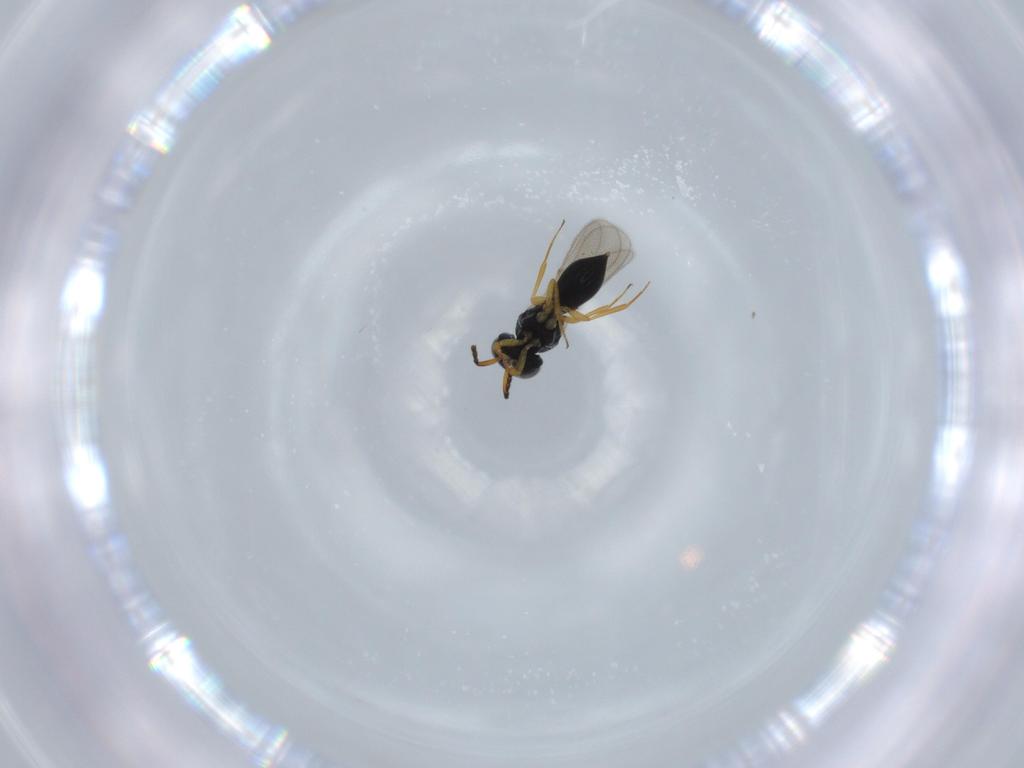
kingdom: Animalia
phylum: Arthropoda
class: Insecta
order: Hymenoptera
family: Scelionidae
